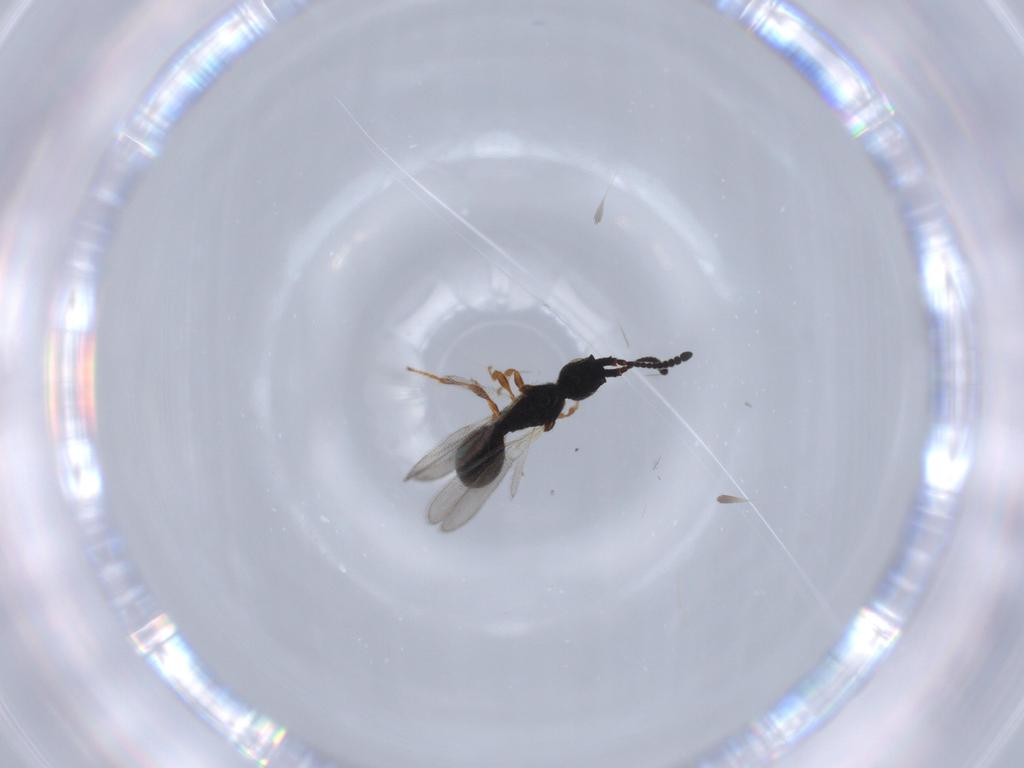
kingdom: Animalia
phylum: Arthropoda
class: Insecta
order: Hymenoptera
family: Diapriidae
